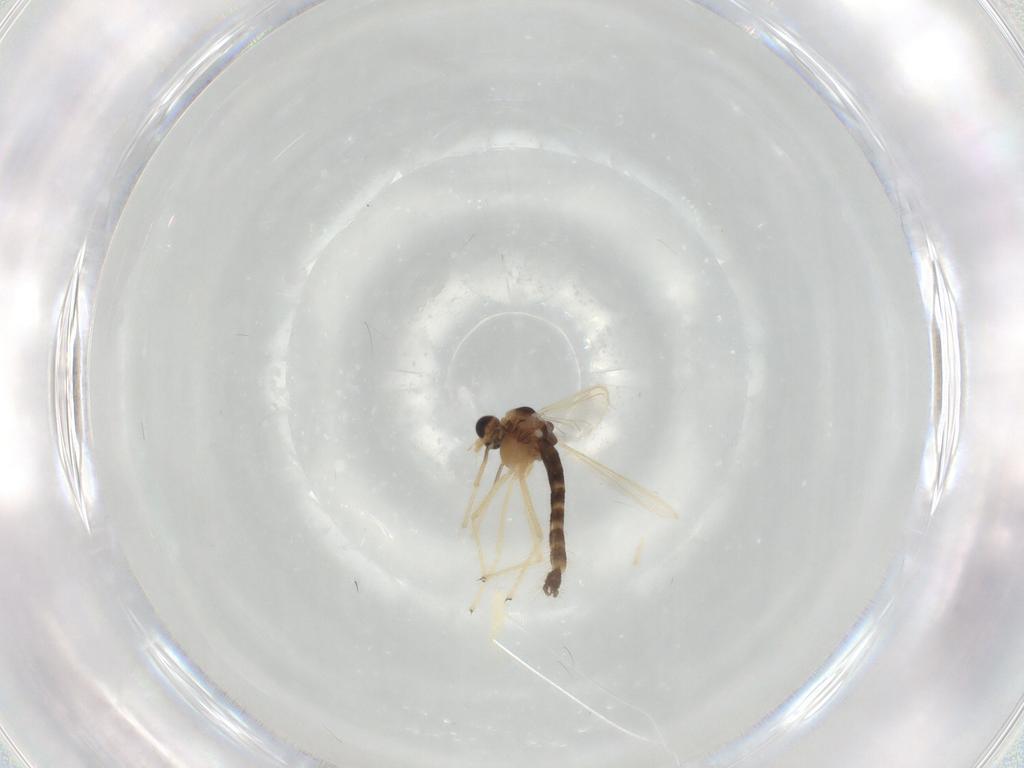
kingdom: Animalia
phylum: Arthropoda
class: Insecta
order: Diptera
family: Chironomidae
